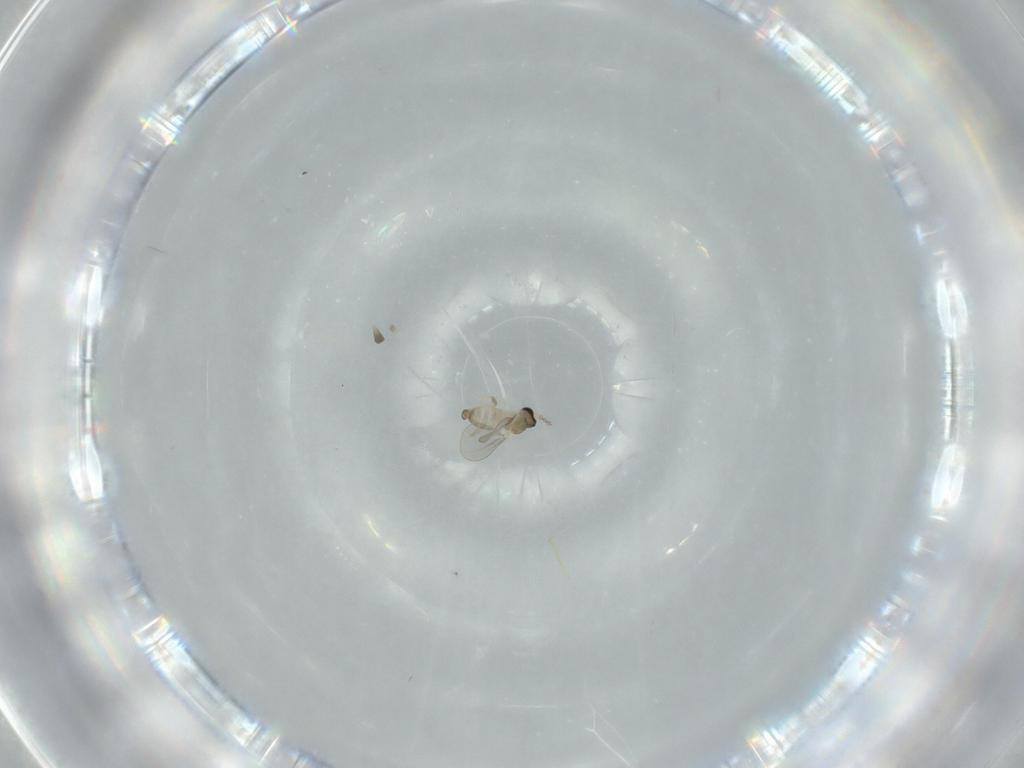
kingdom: Animalia
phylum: Arthropoda
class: Insecta
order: Diptera
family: Cecidomyiidae
